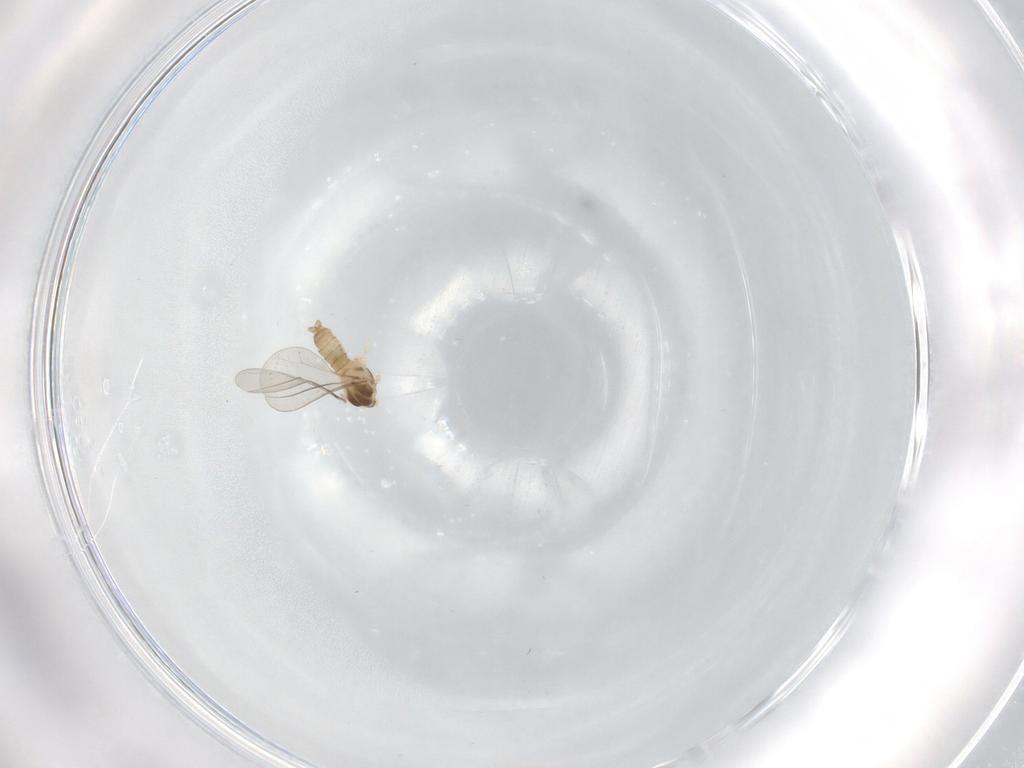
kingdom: Animalia
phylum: Arthropoda
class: Insecta
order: Diptera
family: Cecidomyiidae
